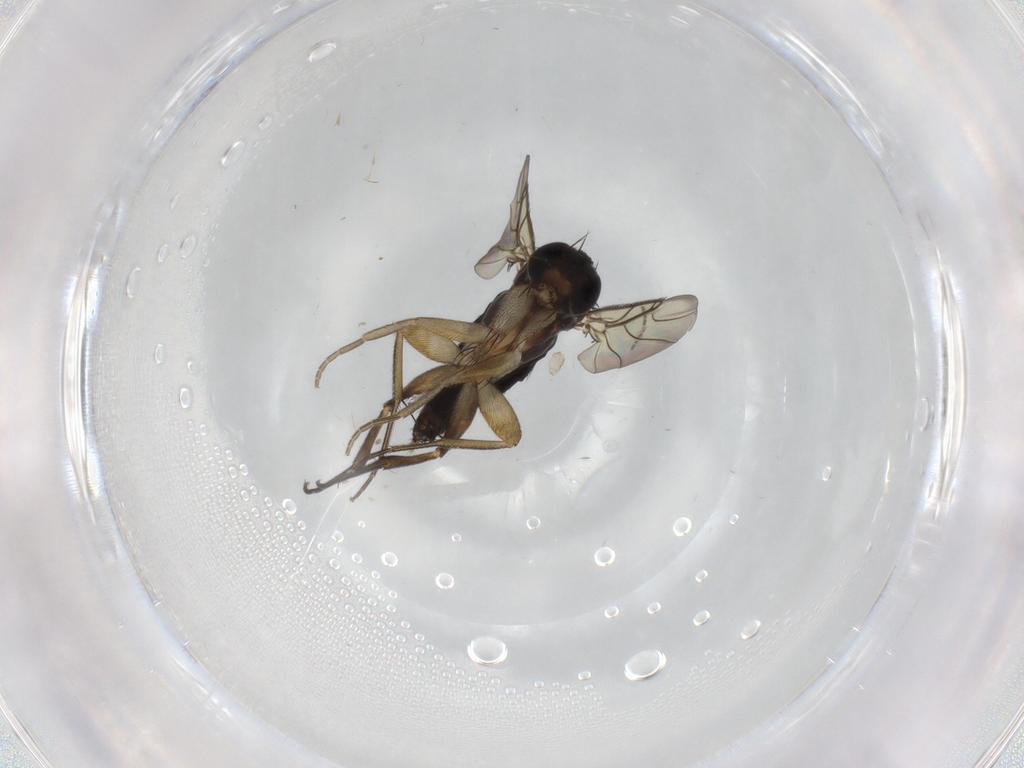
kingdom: Animalia
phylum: Arthropoda
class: Insecta
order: Diptera
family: Phoridae
